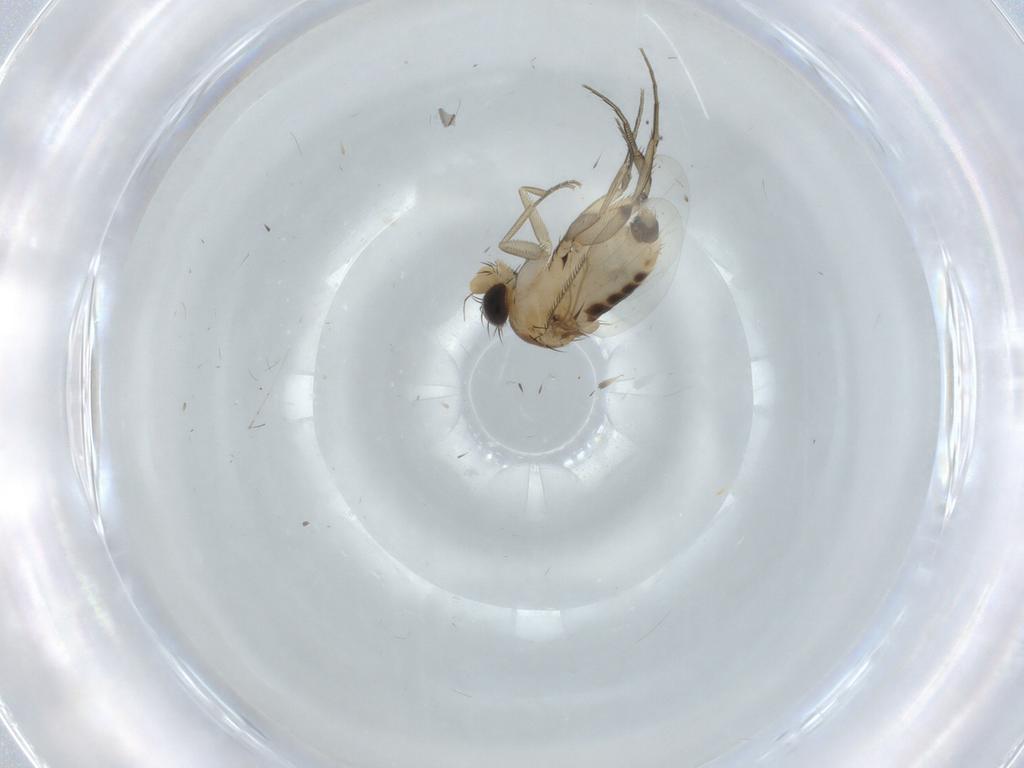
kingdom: Animalia
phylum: Arthropoda
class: Insecta
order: Diptera
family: Phoridae
